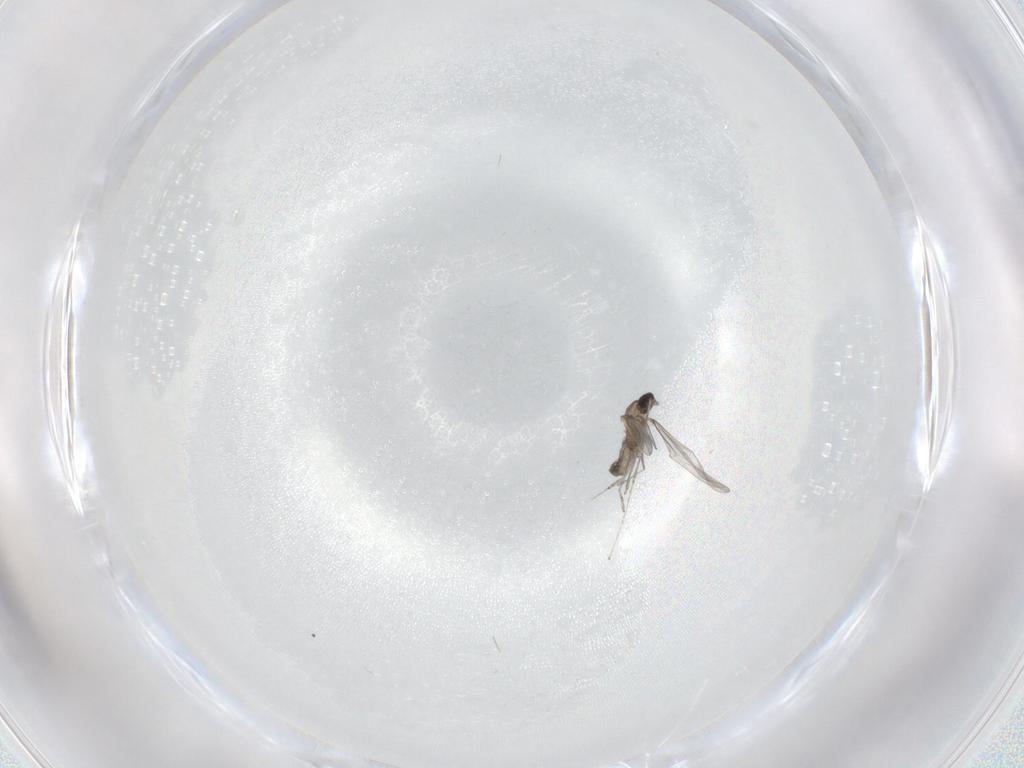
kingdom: Animalia
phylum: Arthropoda
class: Insecta
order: Diptera
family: Cecidomyiidae
